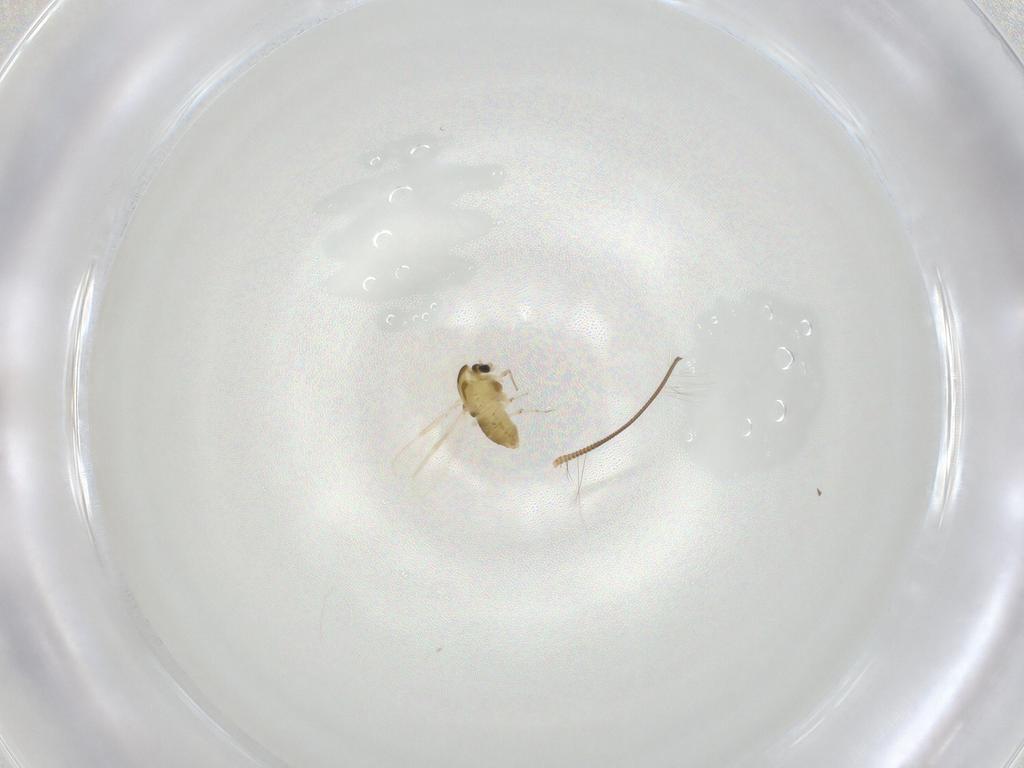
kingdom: Animalia
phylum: Arthropoda
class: Insecta
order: Diptera
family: Chironomidae
